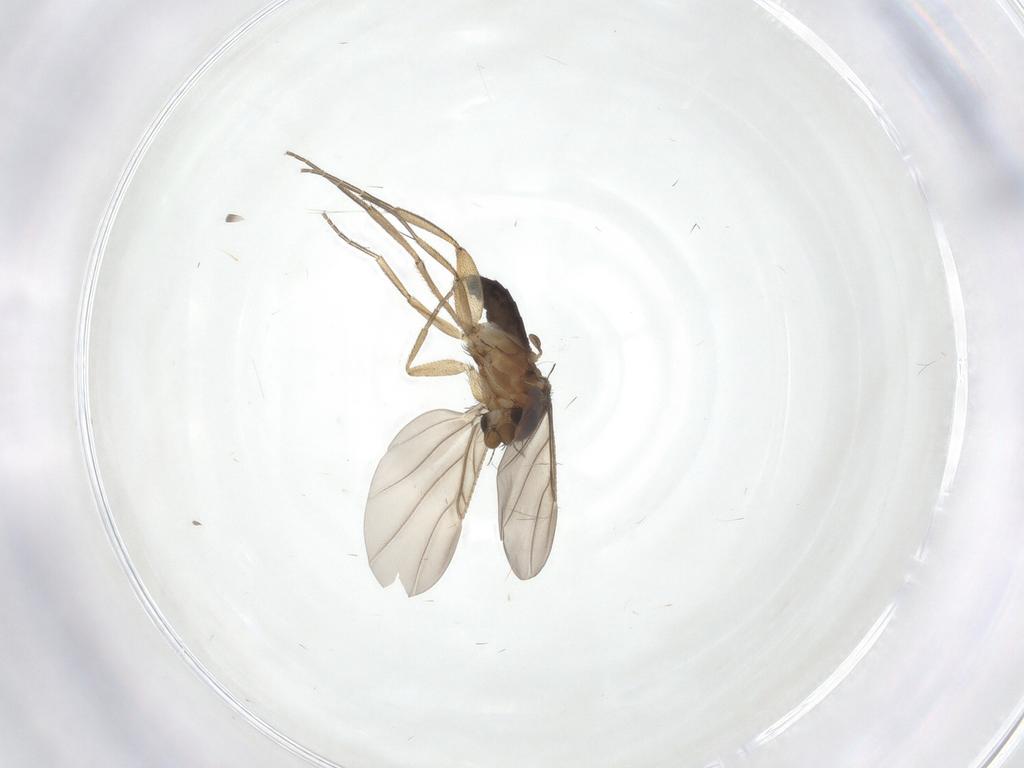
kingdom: Animalia
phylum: Arthropoda
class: Insecta
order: Diptera
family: Phoridae
